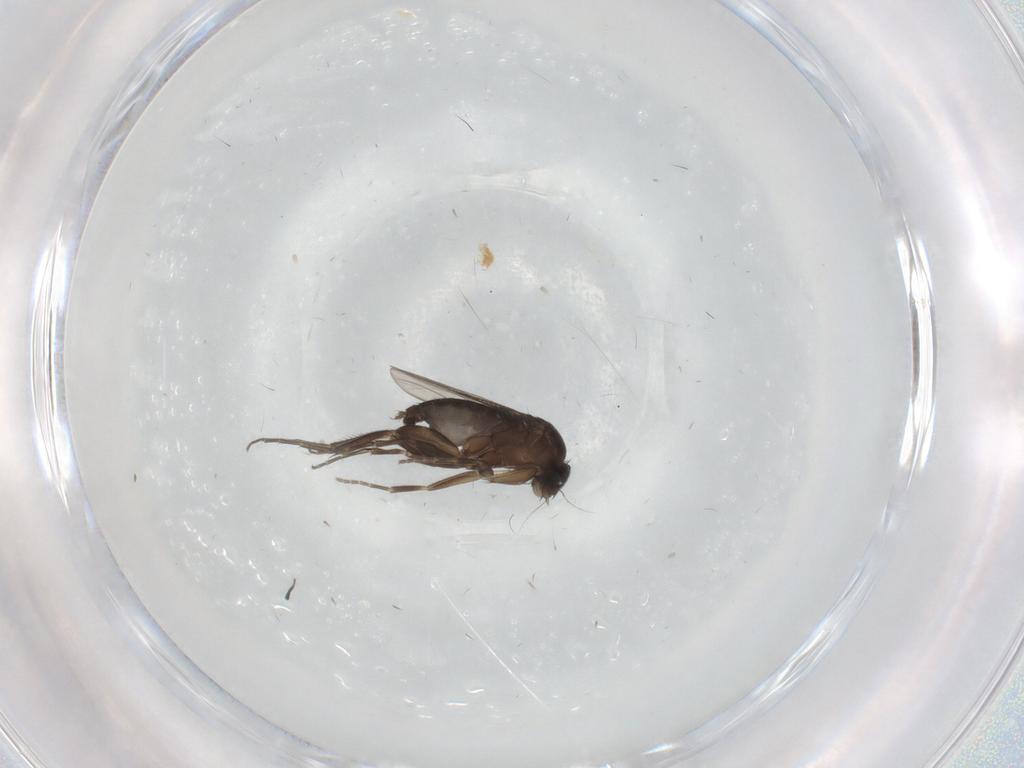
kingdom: Animalia
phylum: Arthropoda
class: Insecta
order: Diptera
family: Phoridae
